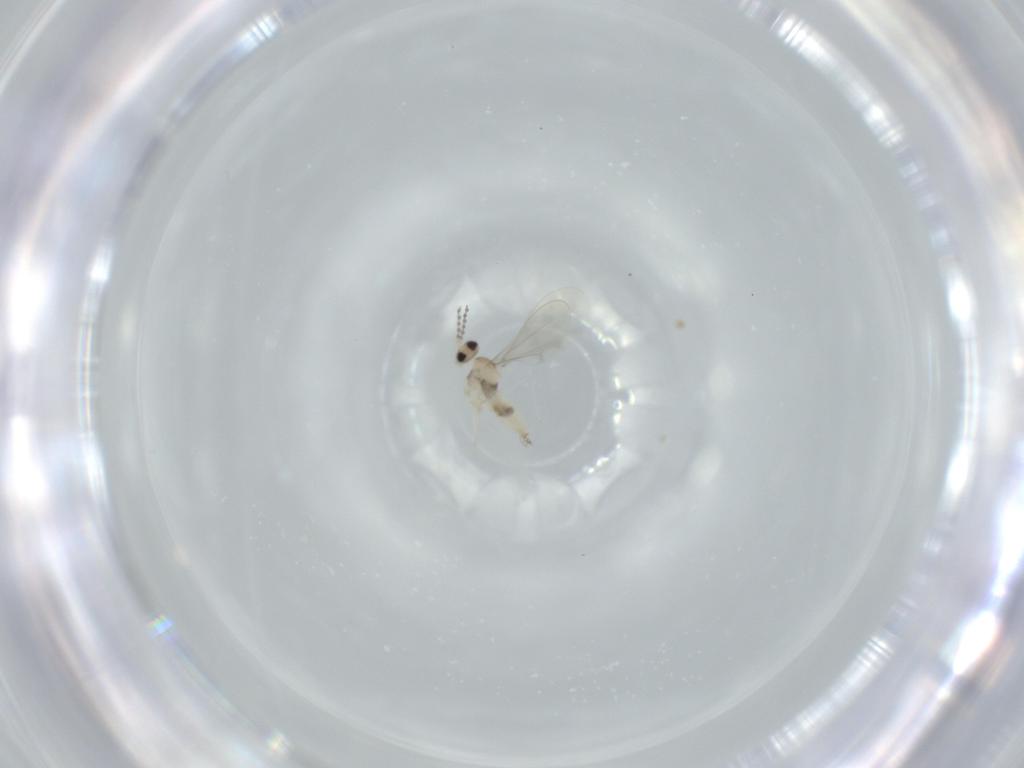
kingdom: Animalia
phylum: Arthropoda
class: Insecta
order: Diptera
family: Cecidomyiidae
